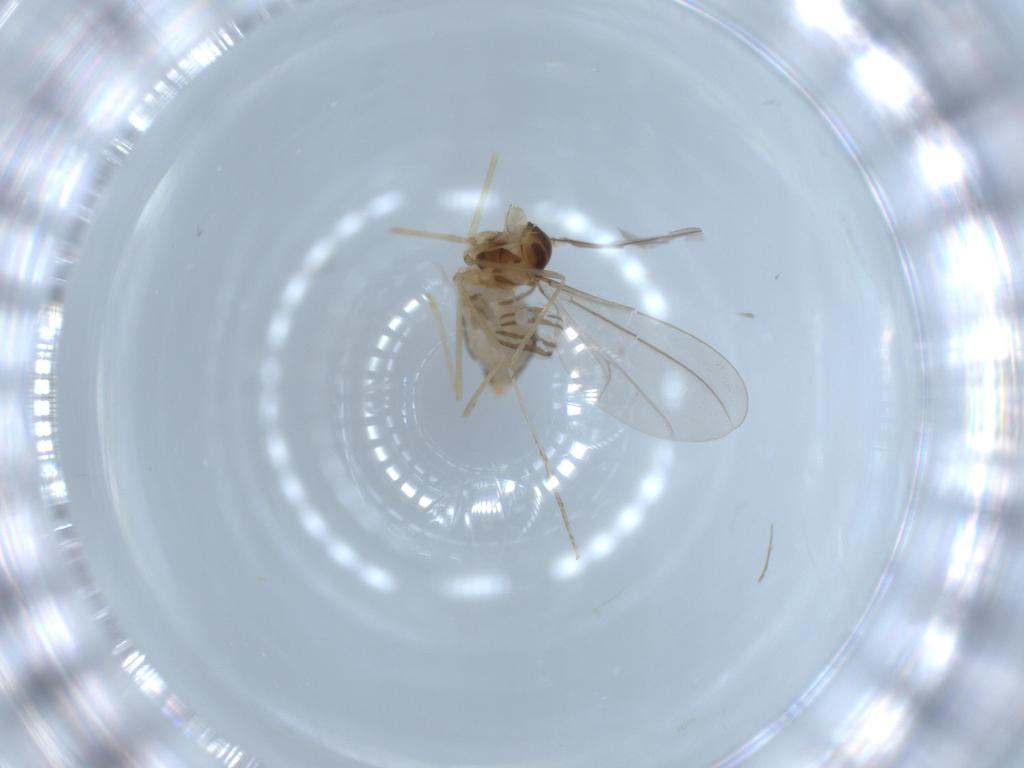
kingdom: Animalia
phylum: Arthropoda
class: Insecta
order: Diptera
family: Cecidomyiidae
